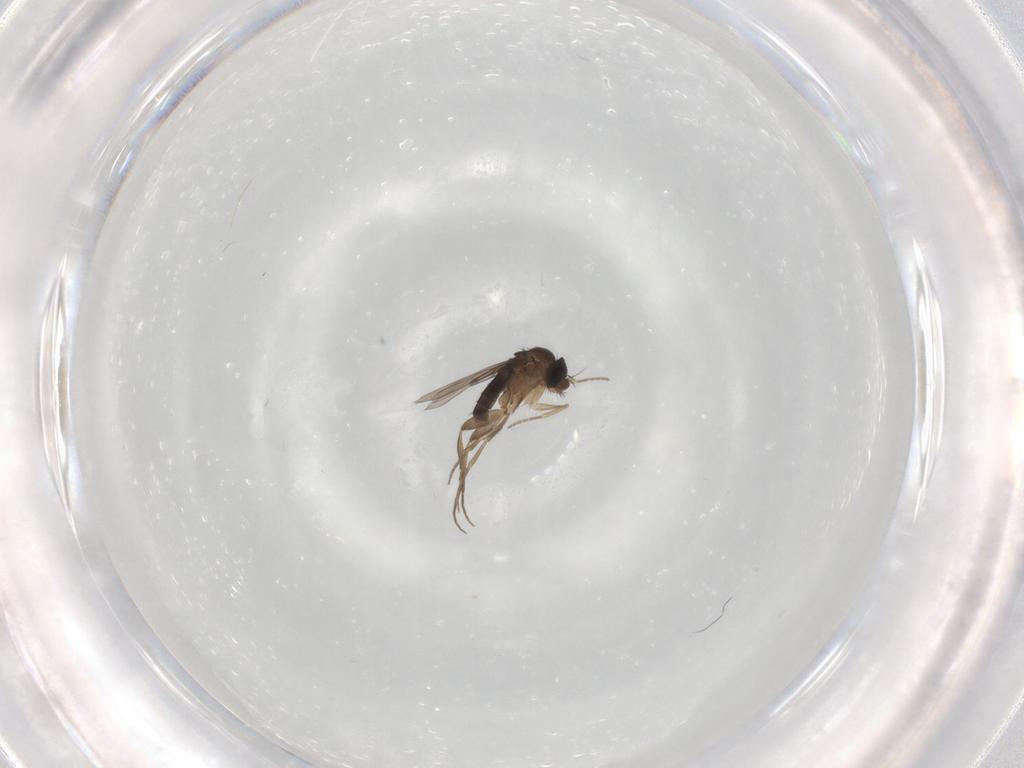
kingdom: Animalia
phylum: Arthropoda
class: Insecta
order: Diptera
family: Phoridae
